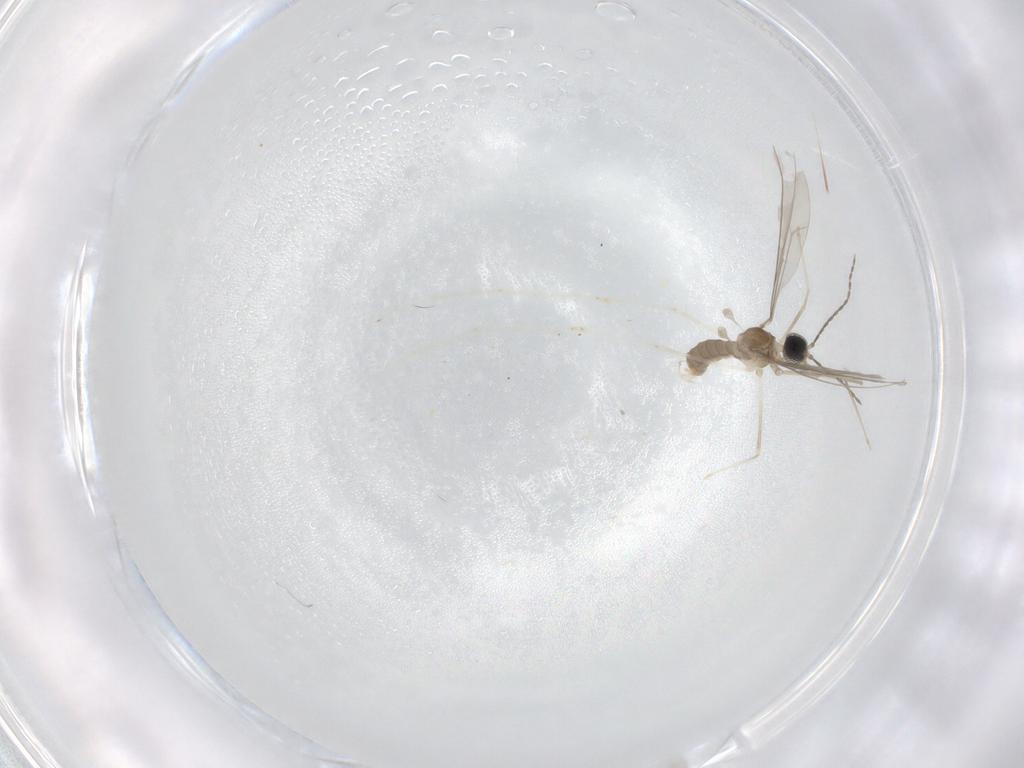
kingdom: Animalia
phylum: Arthropoda
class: Insecta
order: Diptera
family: Cecidomyiidae
